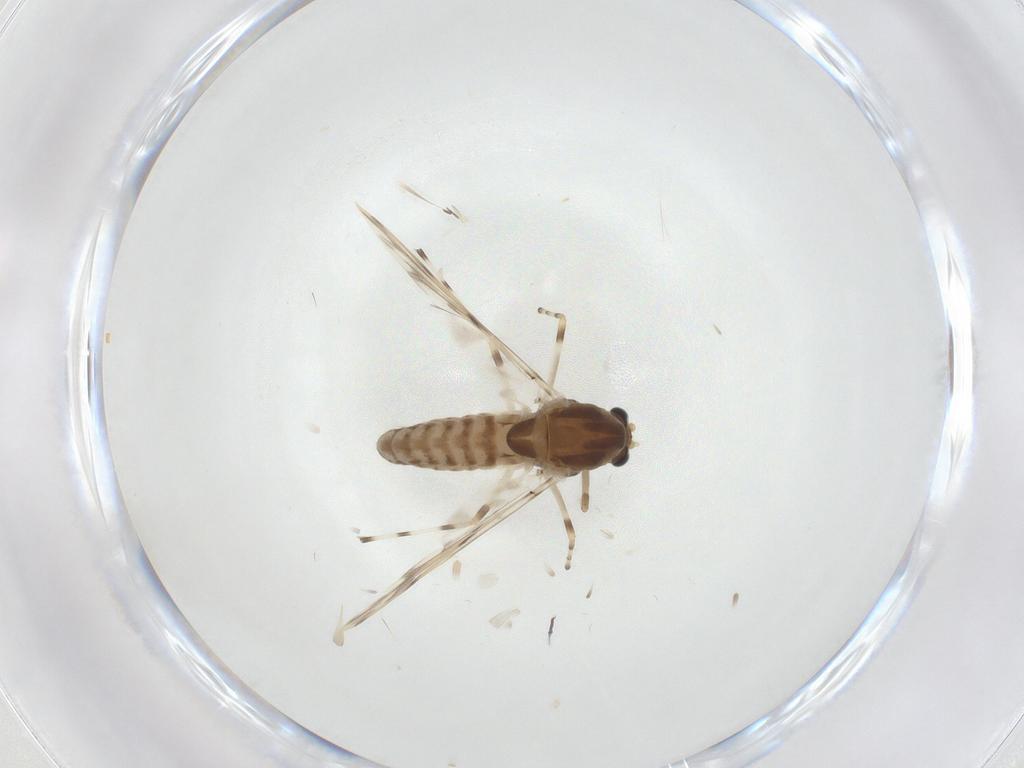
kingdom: Animalia
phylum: Arthropoda
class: Insecta
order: Diptera
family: Chironomidae
